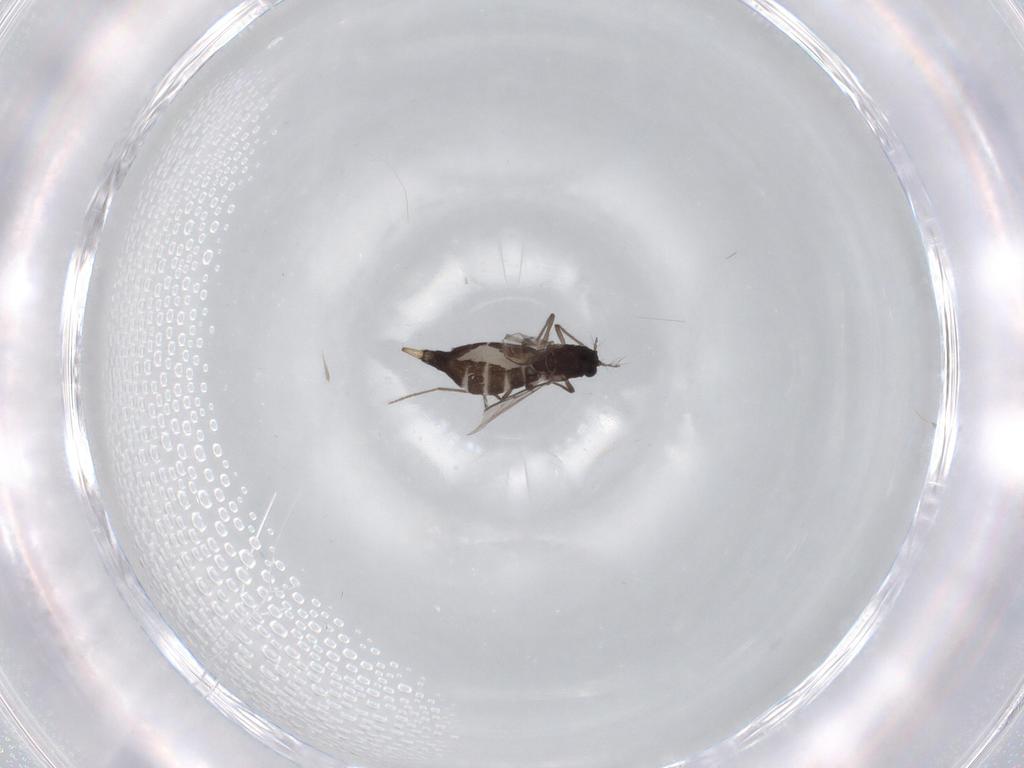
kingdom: Animalia
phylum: Arthropoda
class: Insecta
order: Diptera
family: Chironomidae
